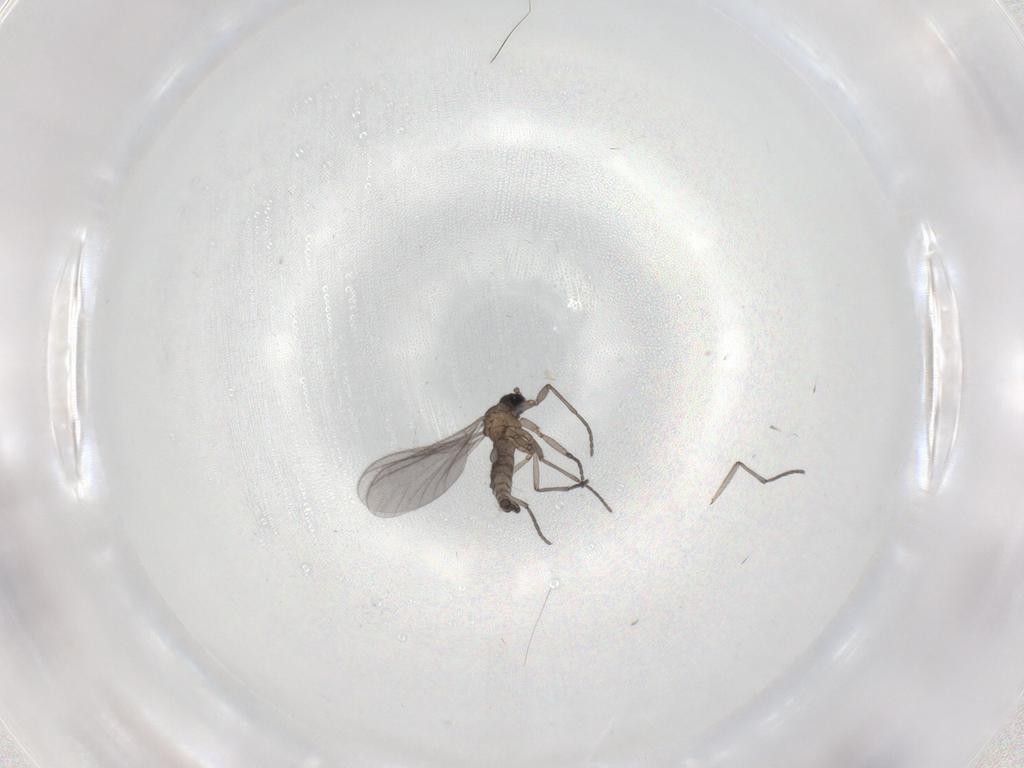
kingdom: Animalia
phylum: Arthropoda
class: Insecta
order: Diptera
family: Sciaridae
